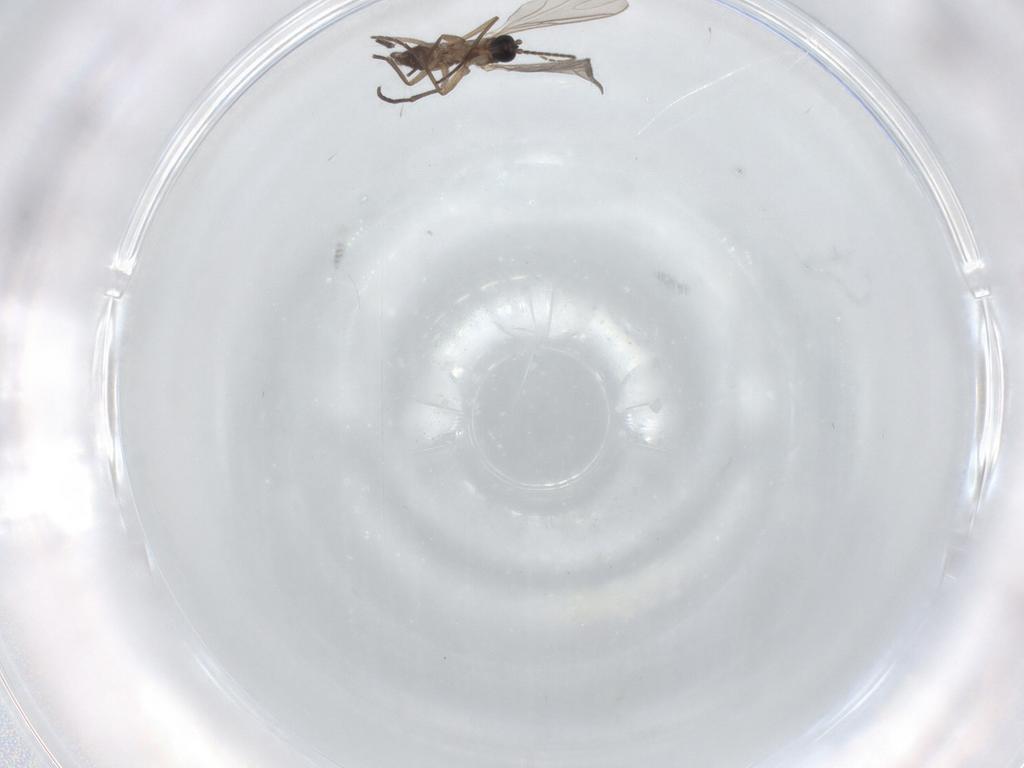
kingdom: Animalia
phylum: Arthropoda
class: Insecta
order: Diptera
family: Sciaridae
